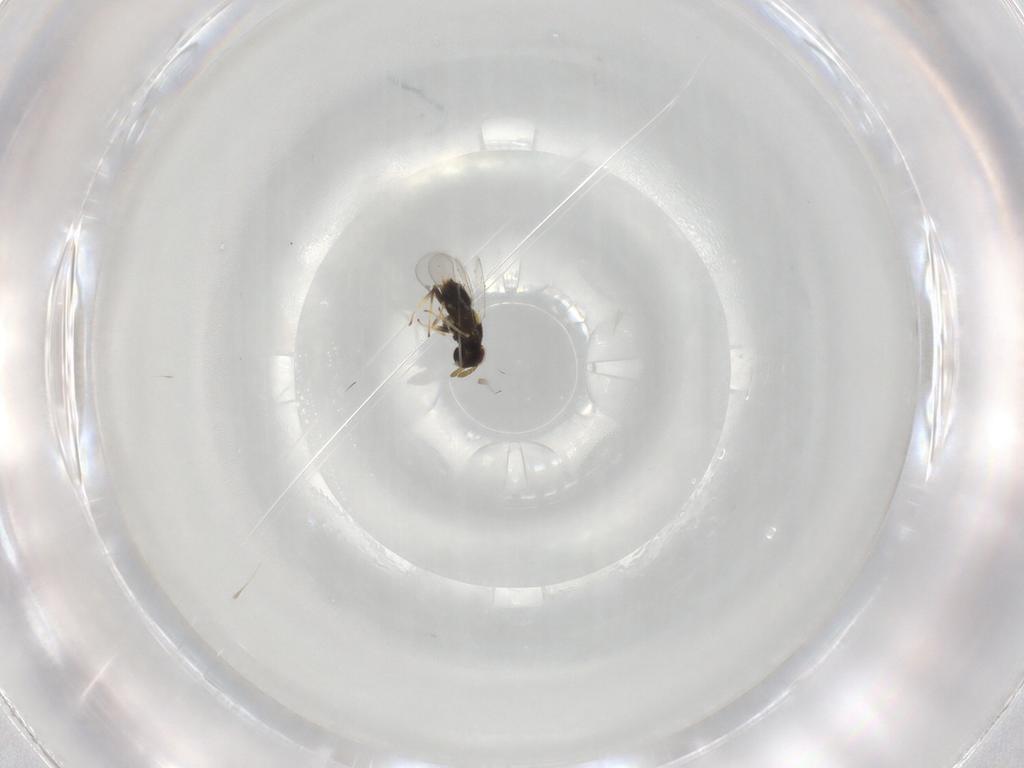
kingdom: Animalia
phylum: Arthropoda
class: Insecta
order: Hymenoptera
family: Aphelinidae
